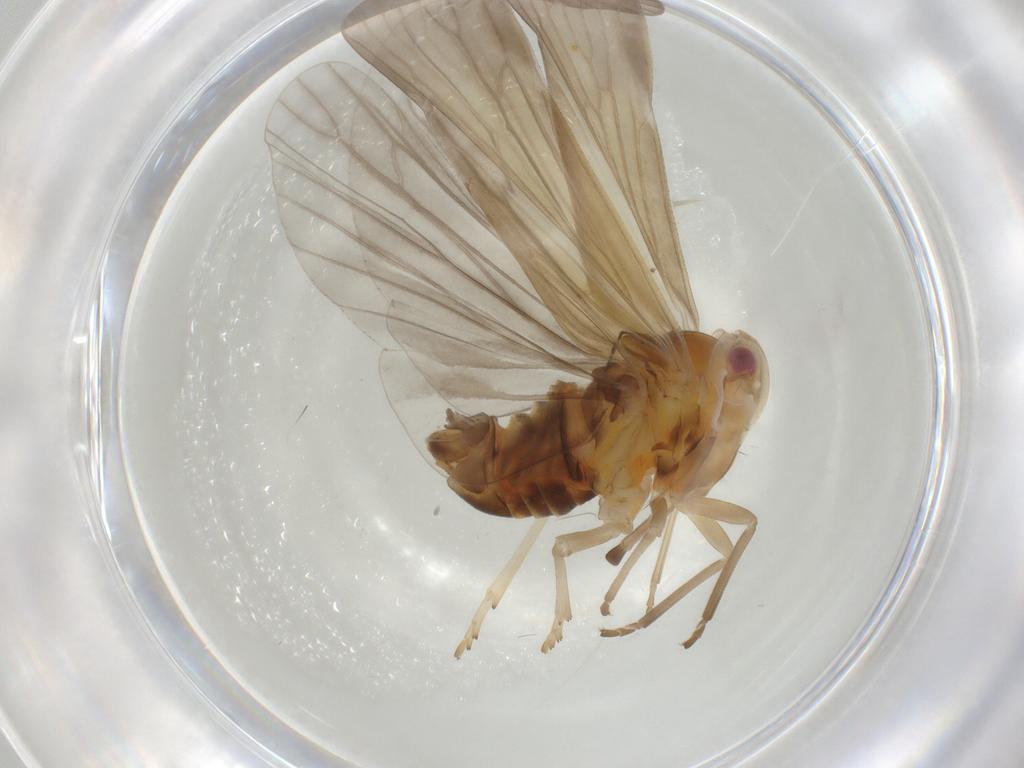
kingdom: Animalia
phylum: Arthropoda
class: Insecta
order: Hemiptera
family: Derbidae
